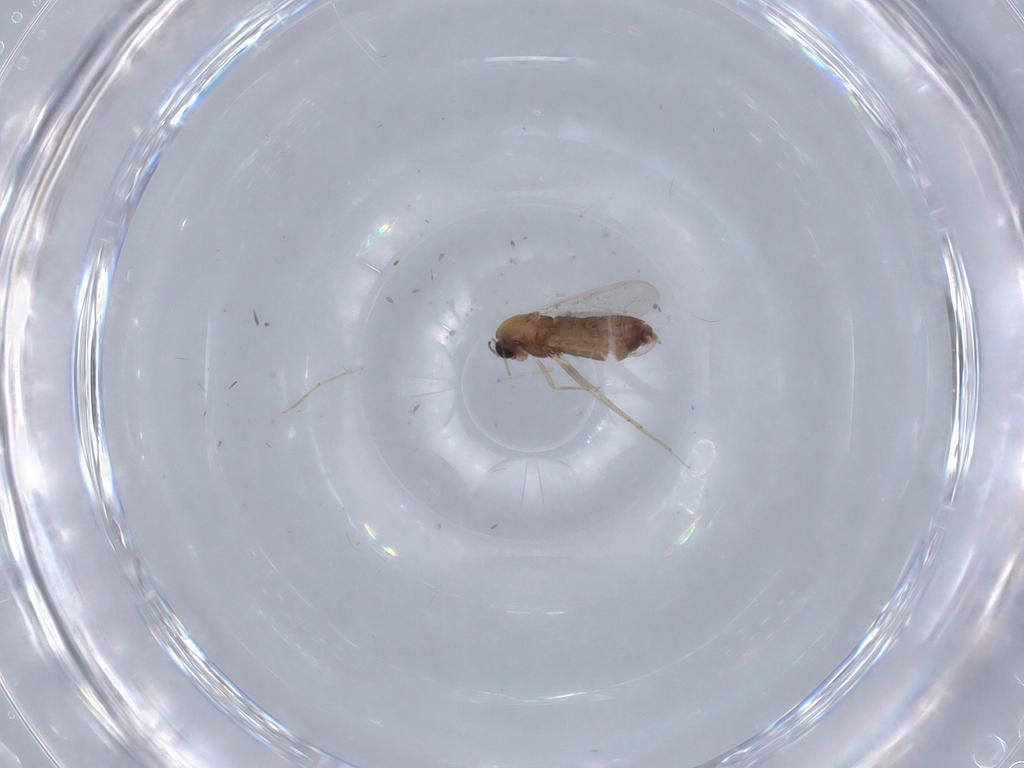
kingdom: Animalia
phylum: Arthropoda
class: Insecta
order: Diptera
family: Chironomidae
